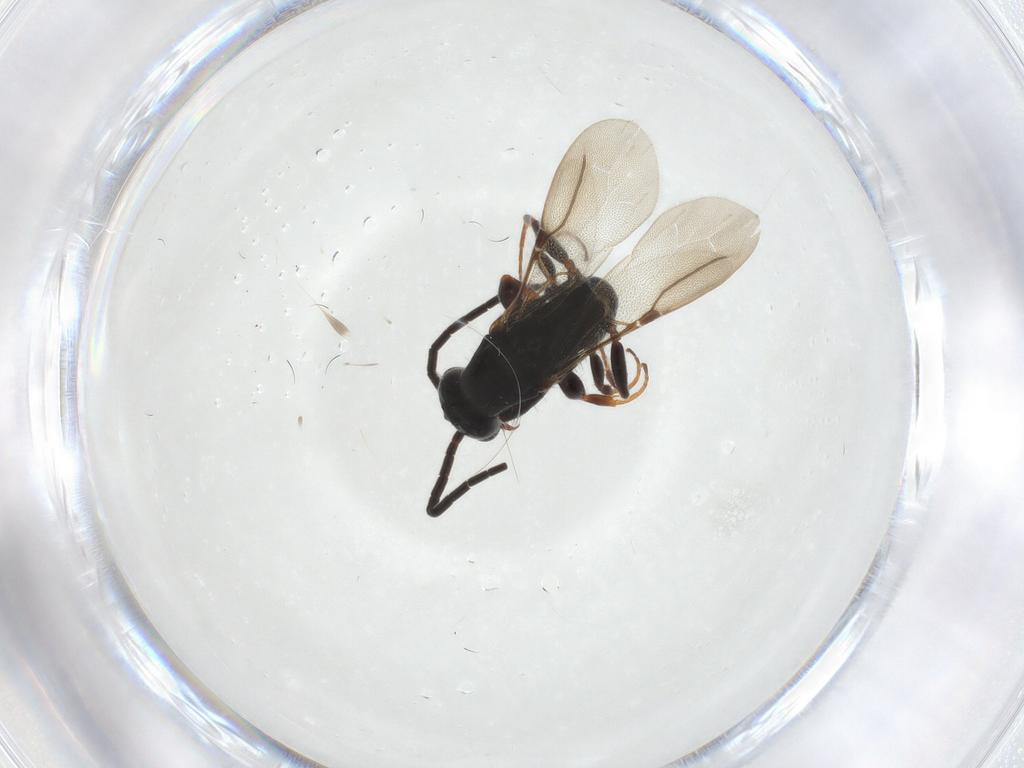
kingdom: Animalia
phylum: Arthropoda
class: Insecta
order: Hymenoptera
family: Bethylidae
